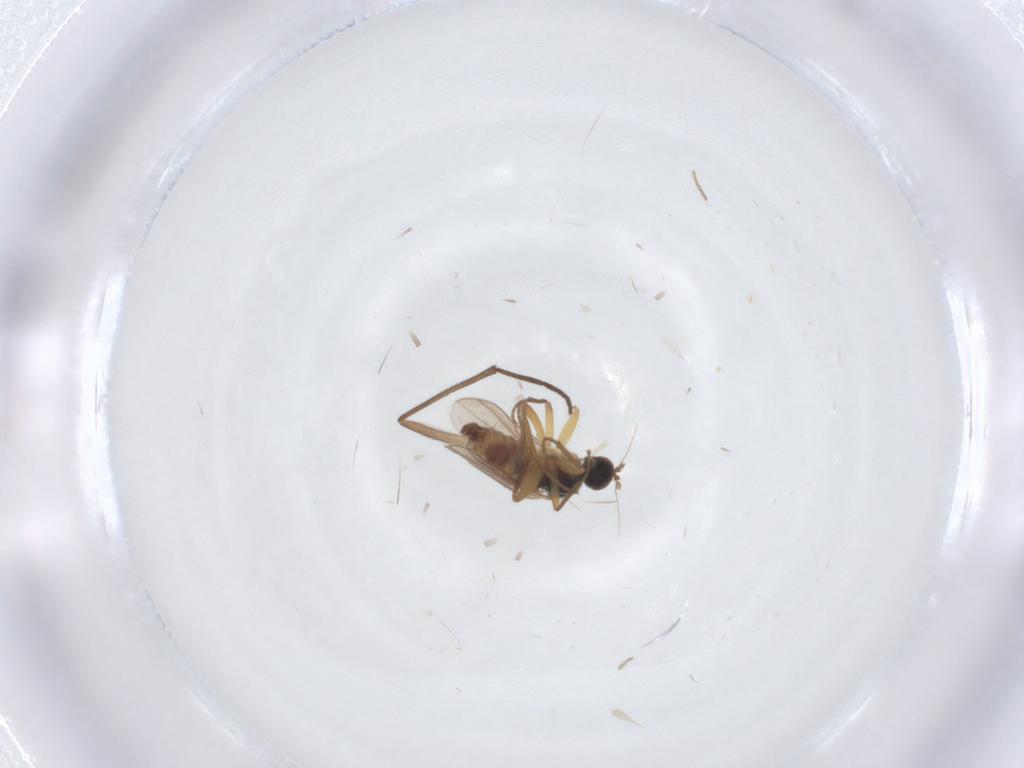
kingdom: Animalia
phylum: Arthropoda
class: Insecta
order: Diptera
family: Hybotidae
